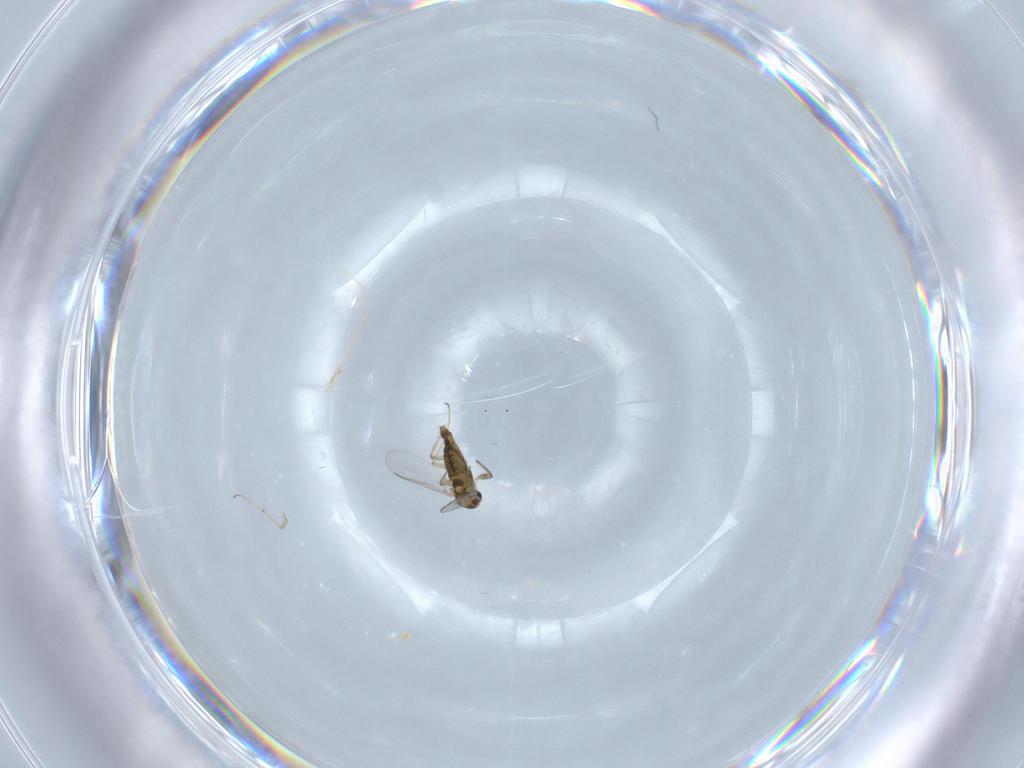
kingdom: Animalia
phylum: Arthropoda
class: Insecta
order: Diptera
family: Chironomidae
